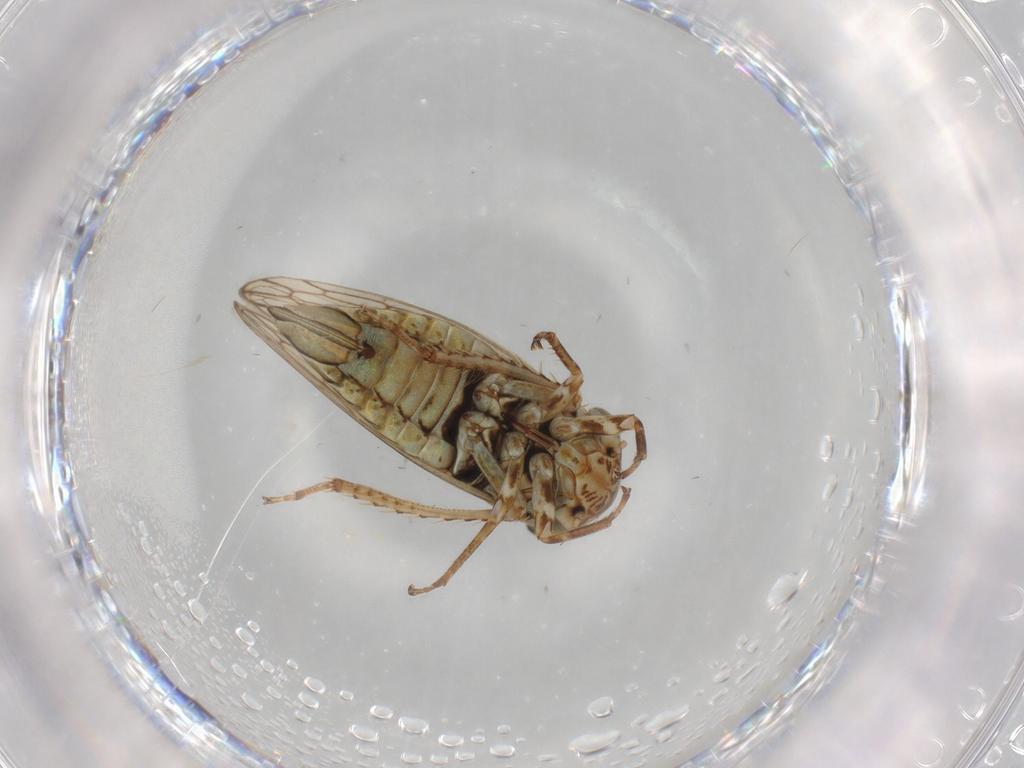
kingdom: Animalia
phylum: Arthropoda
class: Insecta
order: Hemiptera
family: Cicadellidae
